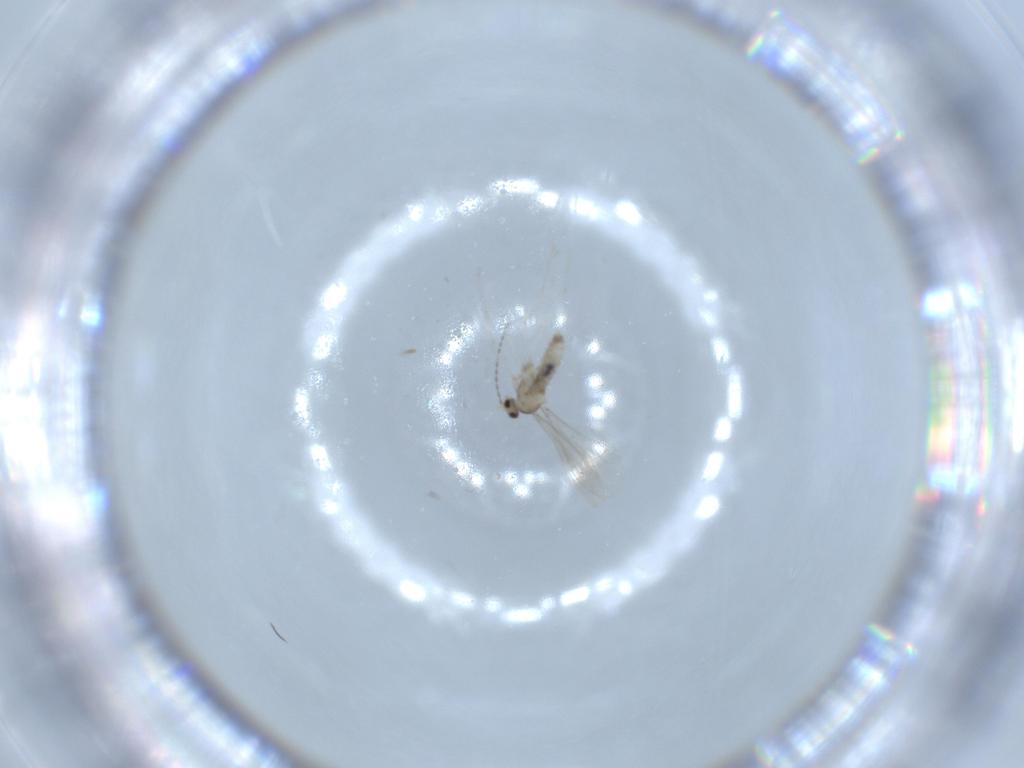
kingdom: Animalia
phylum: Arthropoda
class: Insecta
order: Diptera
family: Cecidomyiidae
